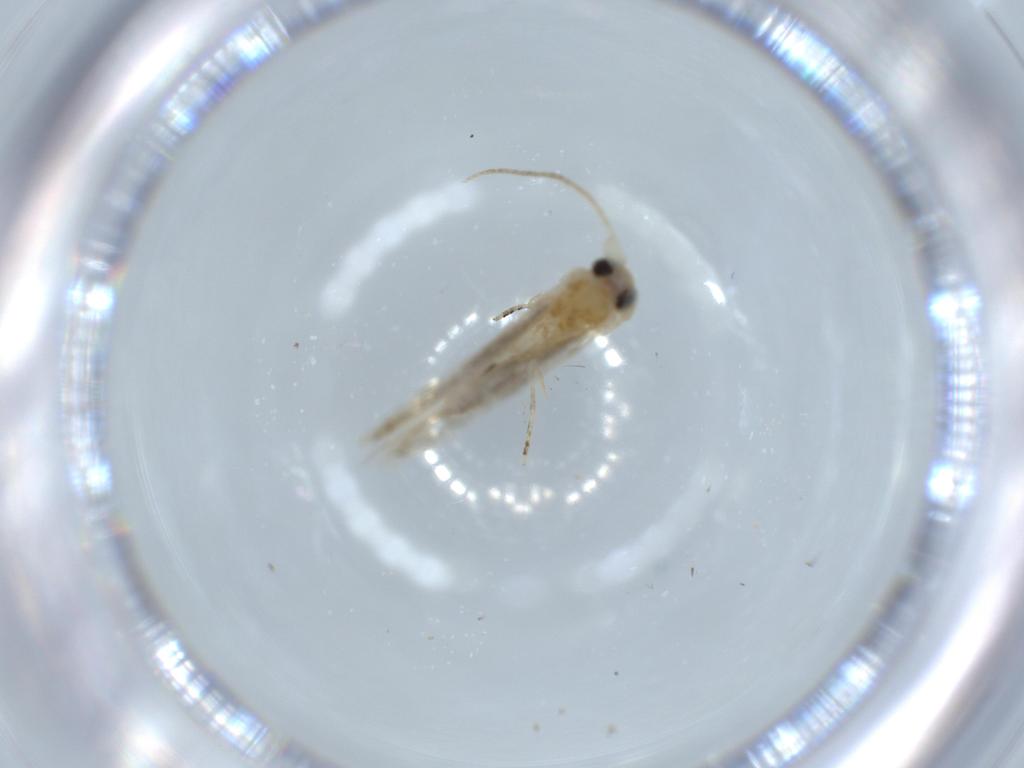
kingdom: Animalia
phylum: Arthropoda
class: Insecta
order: Lepidoptera
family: Bucculatricidae
